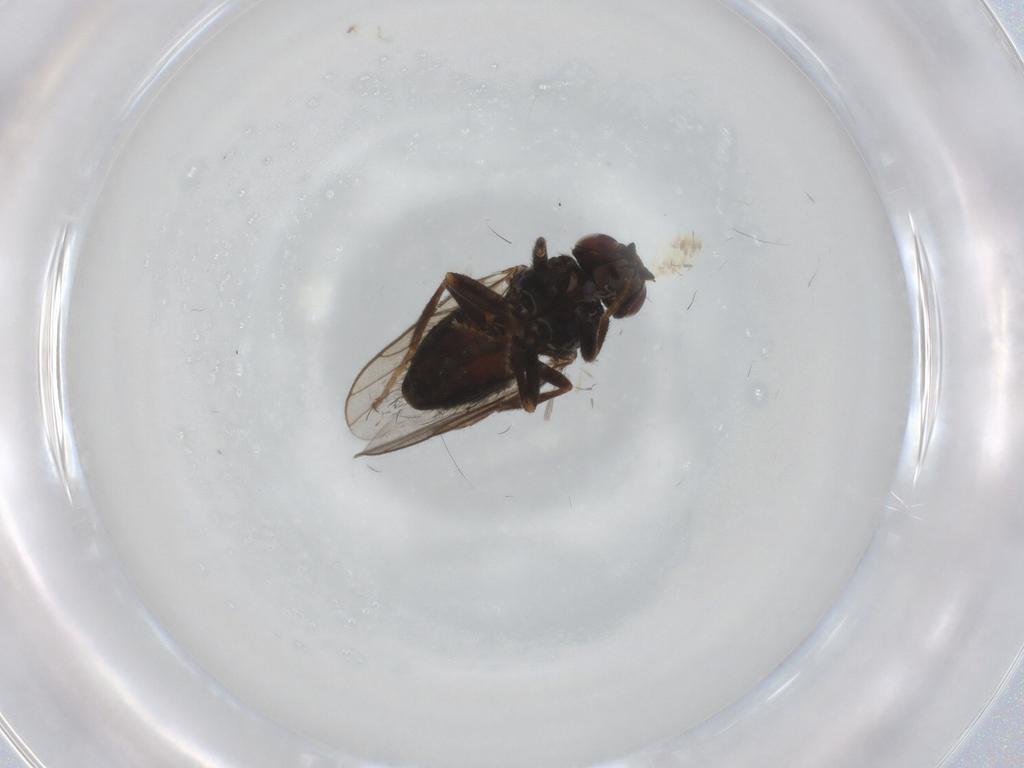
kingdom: Animalia
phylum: Arthropoda
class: Insecta
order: Diptera
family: Chloropidae
